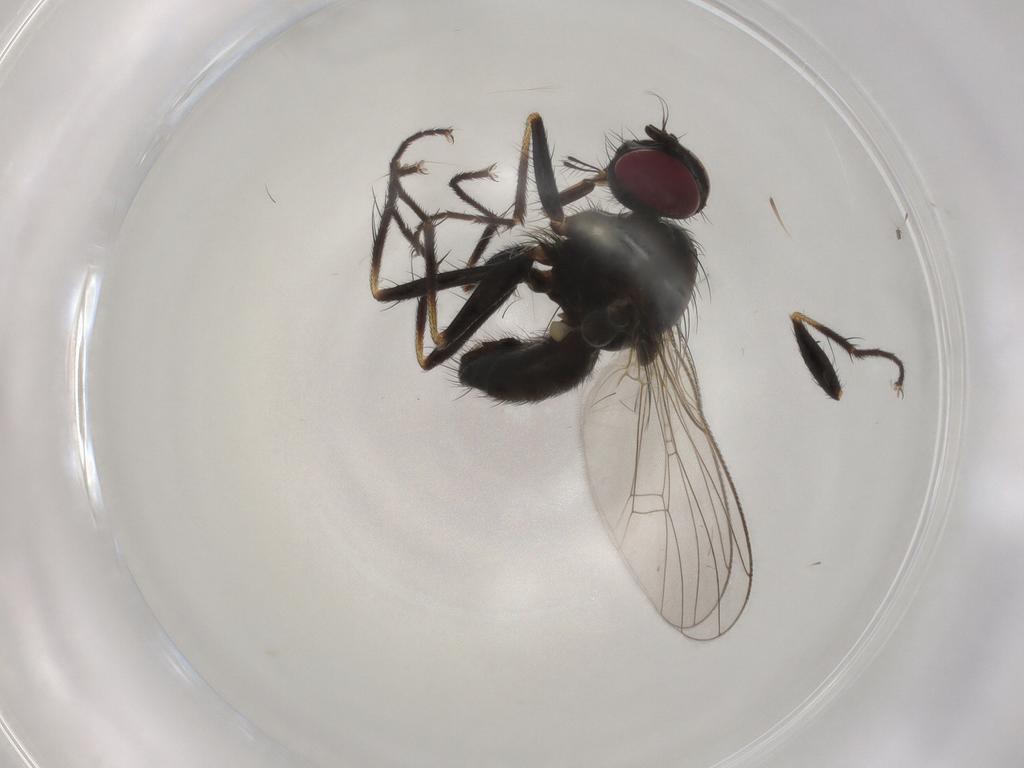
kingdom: Animalia
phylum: Arthropoda
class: Insecta
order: Diptera
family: Muscidae
